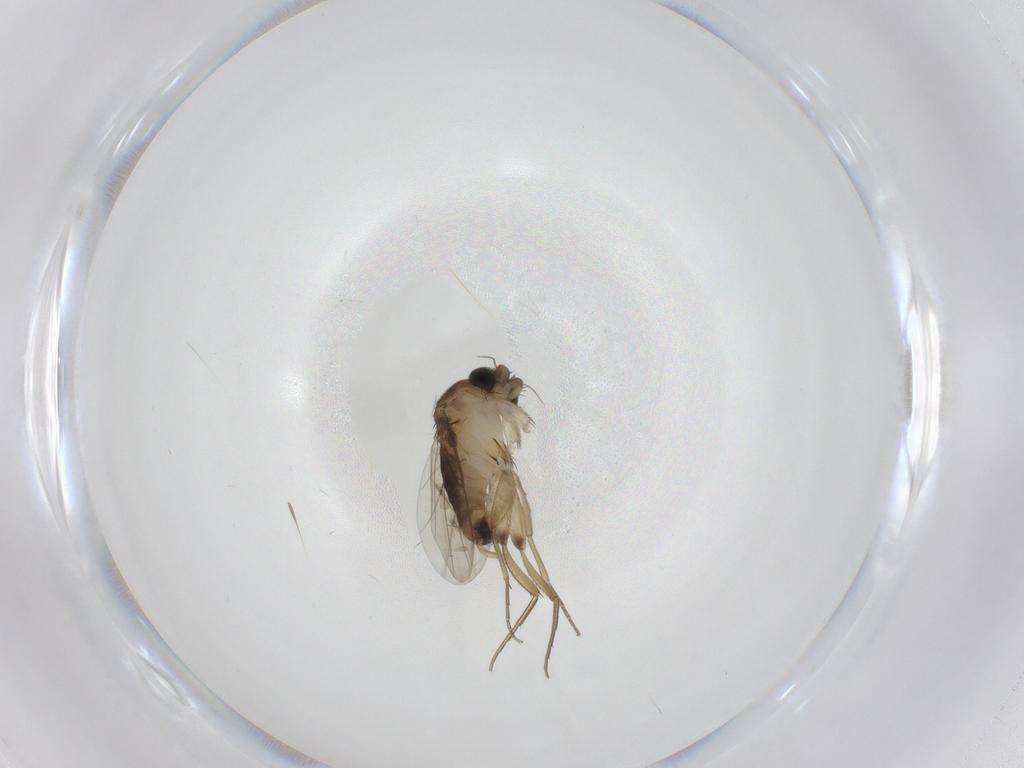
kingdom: Animalia
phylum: Arthropoda
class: Insecta
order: Diptera
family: Phoridae
